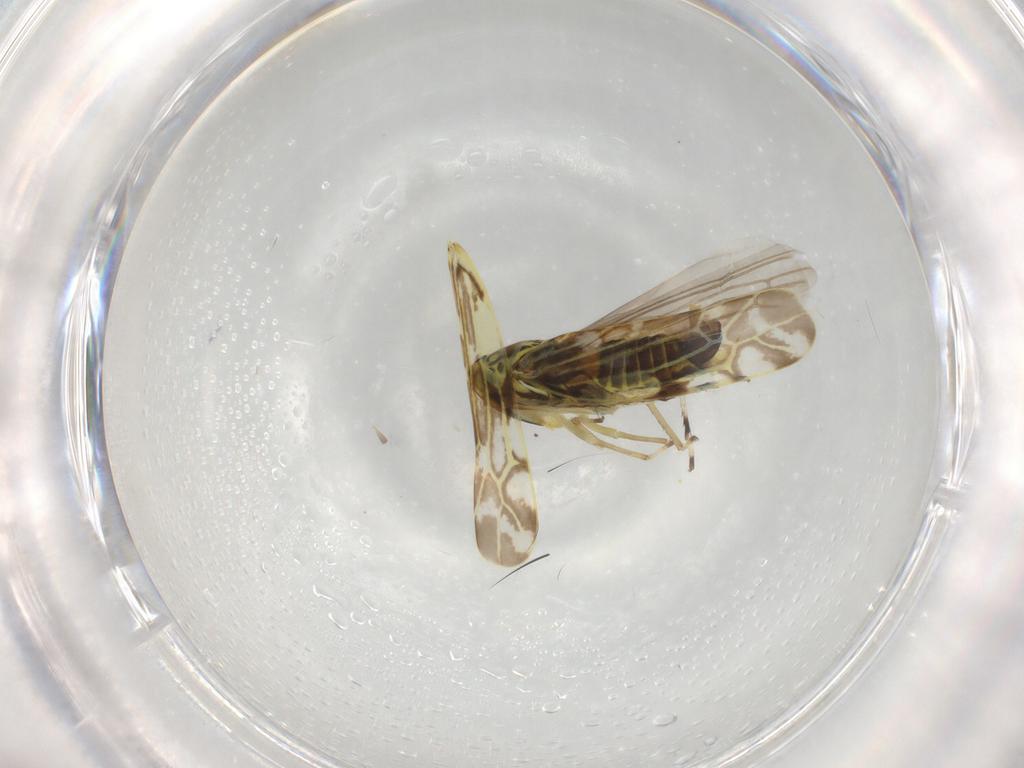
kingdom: Animalia
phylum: Arthropoda
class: Insecta
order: Hemiptera
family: Cicadellidae
